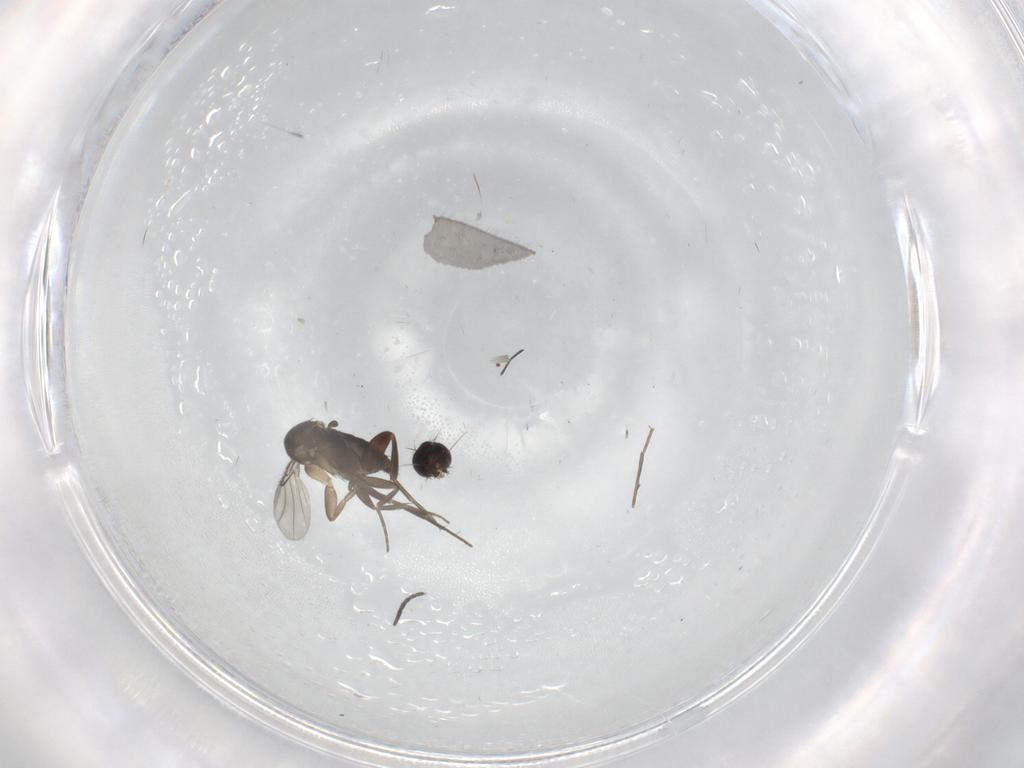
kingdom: Animalia
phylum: Arthropoda
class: Insecta
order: Diptera
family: Phoridae
